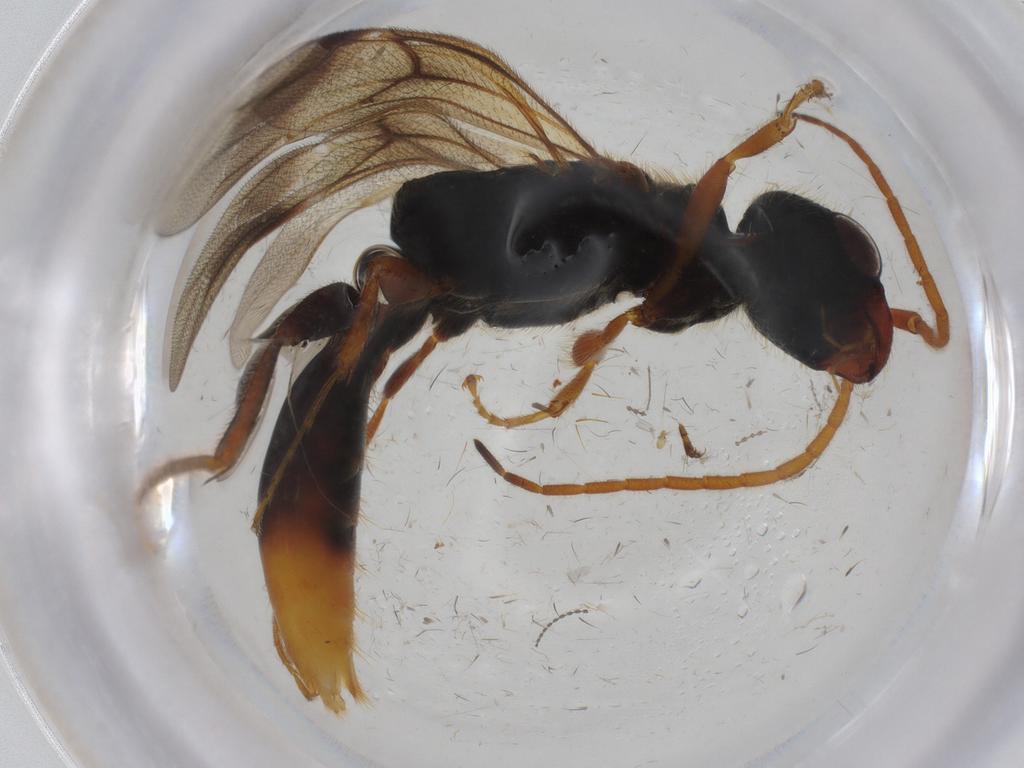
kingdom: Animalia
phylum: Arthropoda
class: Insecta
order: Hymenoptera
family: Bethylidae
